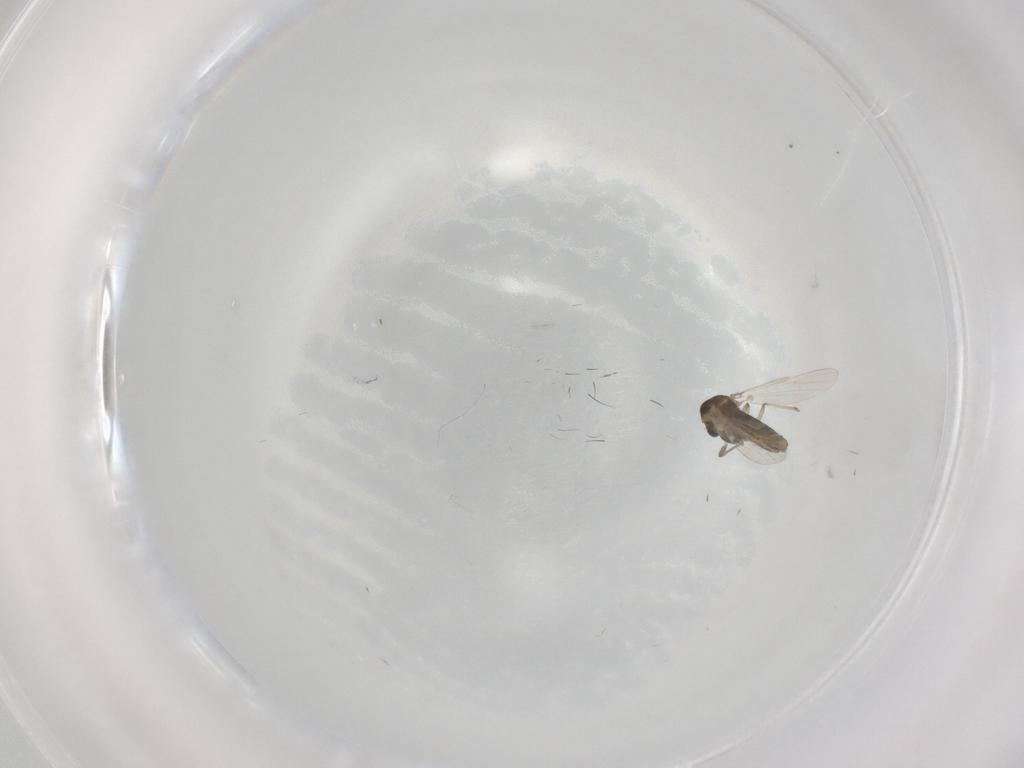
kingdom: Animalia
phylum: Arthropoda
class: Insecta
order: Diptera
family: Chironomidae
